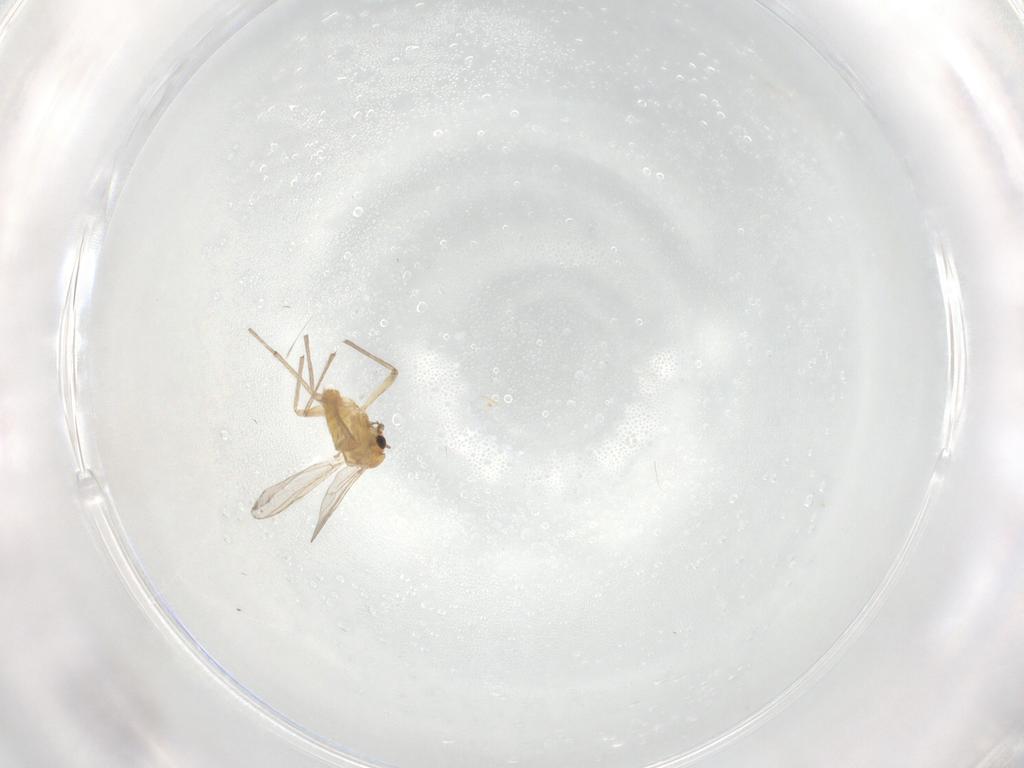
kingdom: Animalia
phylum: Arthropoda
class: Insecta
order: Diptera
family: Chironomidae
